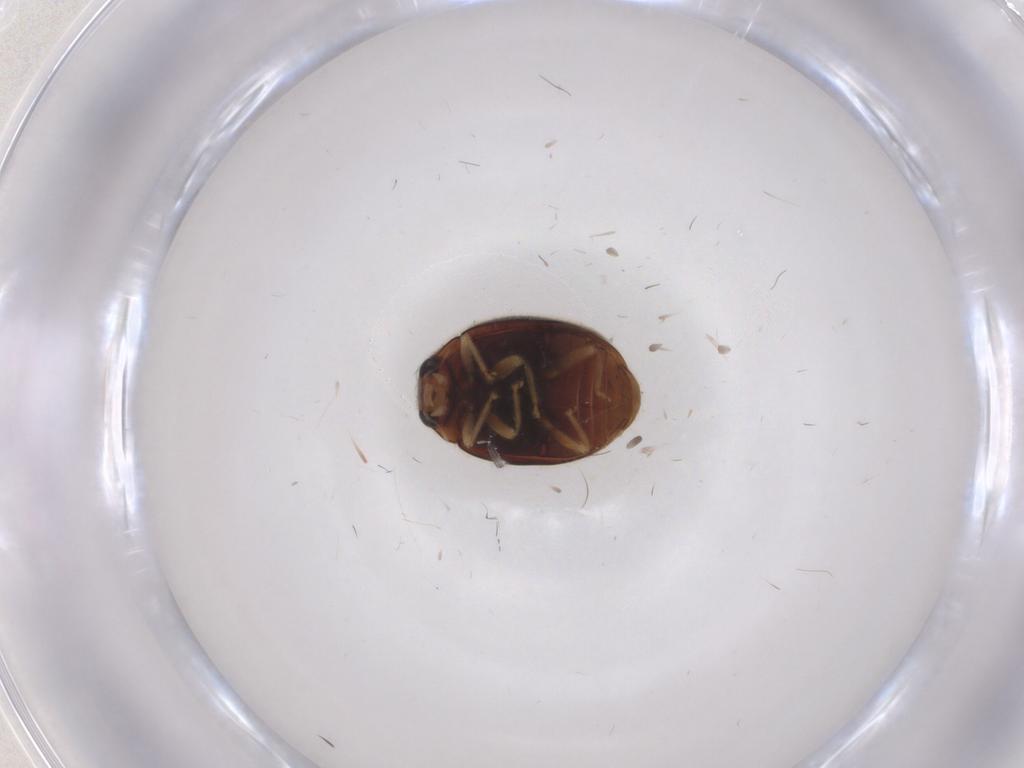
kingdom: Animalia
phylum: Arthropoda
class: Insecta
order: Coleoptera
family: Coccinellidae
